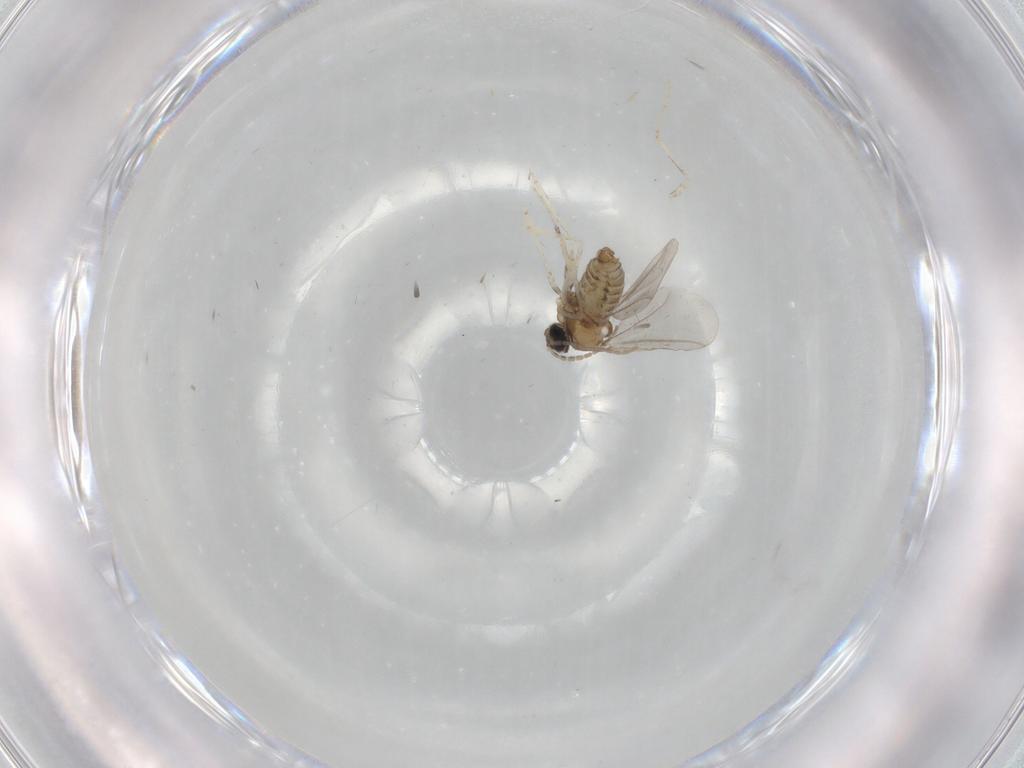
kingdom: Animalia
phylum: Arthropoda
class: Insecta
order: Diptera
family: Cecidomyiidae
